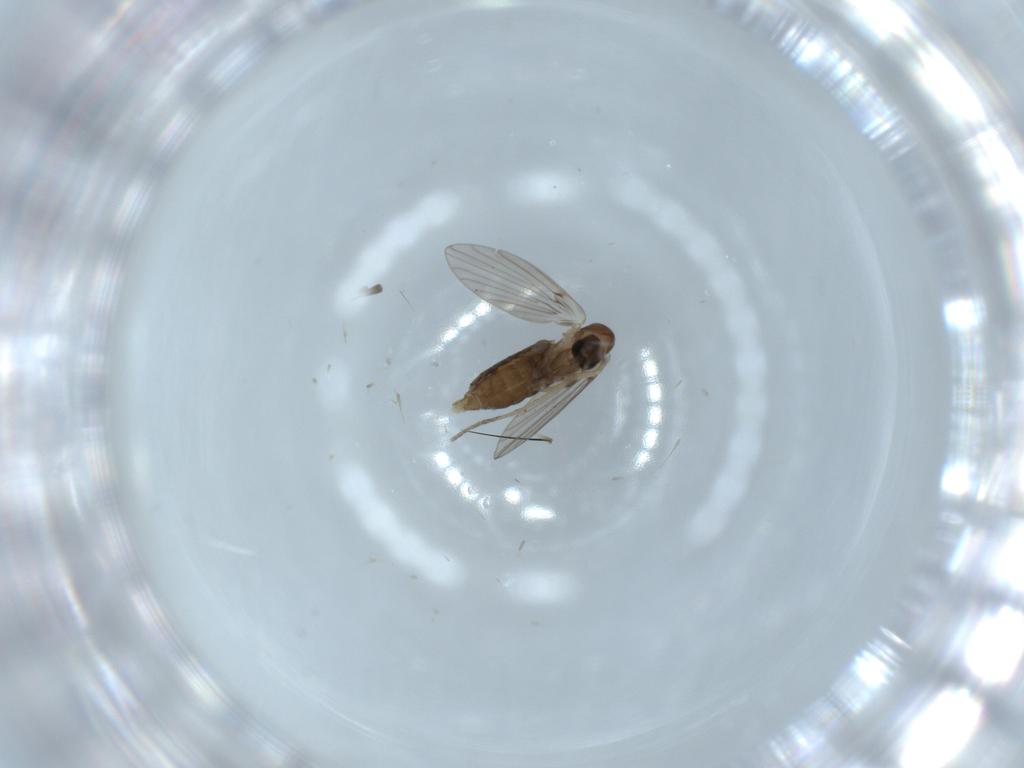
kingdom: Animalia
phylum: Arthropoda
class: Insecta
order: Diptera
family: Dolichopodidae
